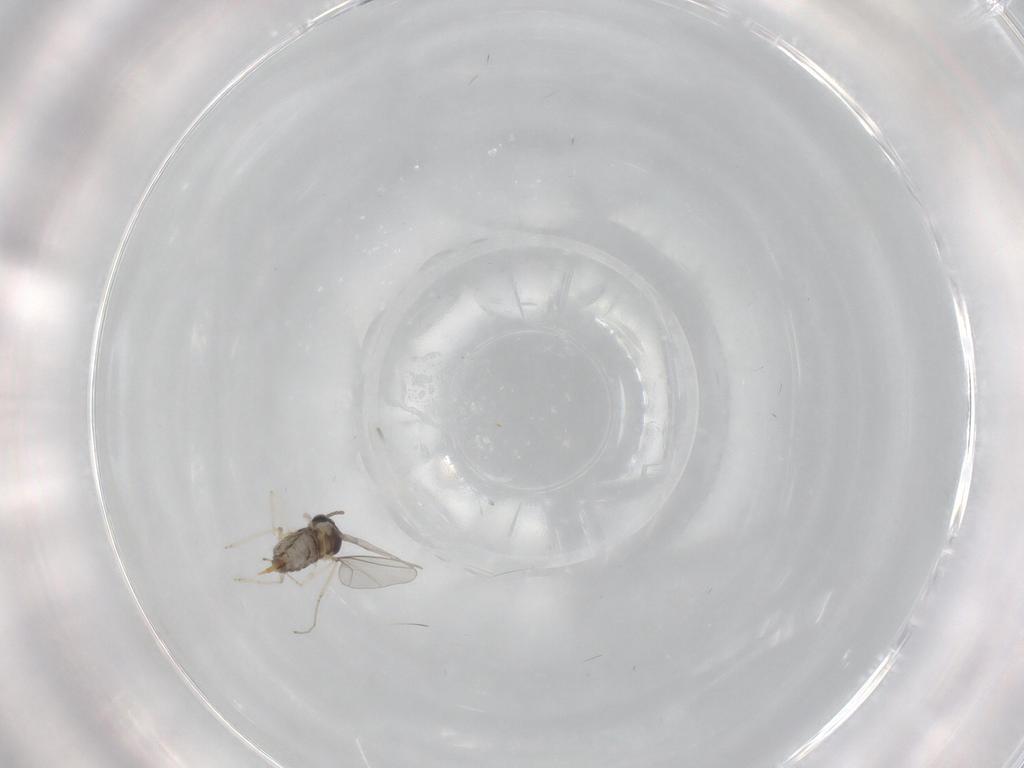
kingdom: Animalia
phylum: Arthropoda
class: Insecta
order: Diptera
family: Cecidomyiidae
